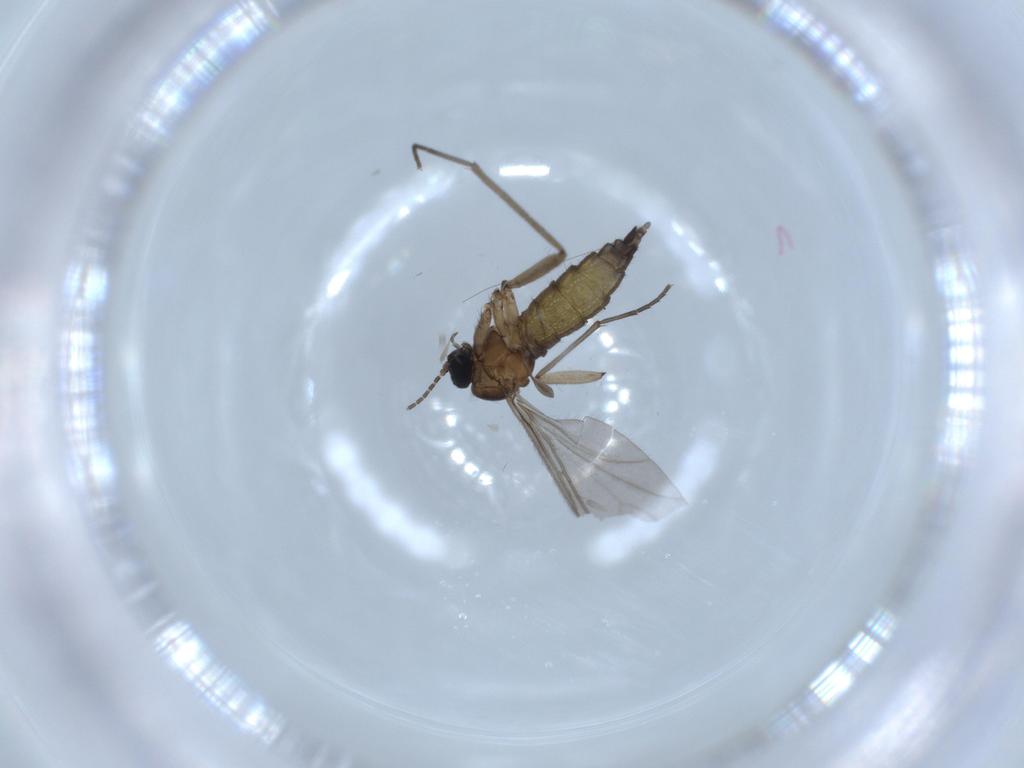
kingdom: Animalia
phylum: Arthropoda
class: Insecta
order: Diptera
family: Sciaridae
